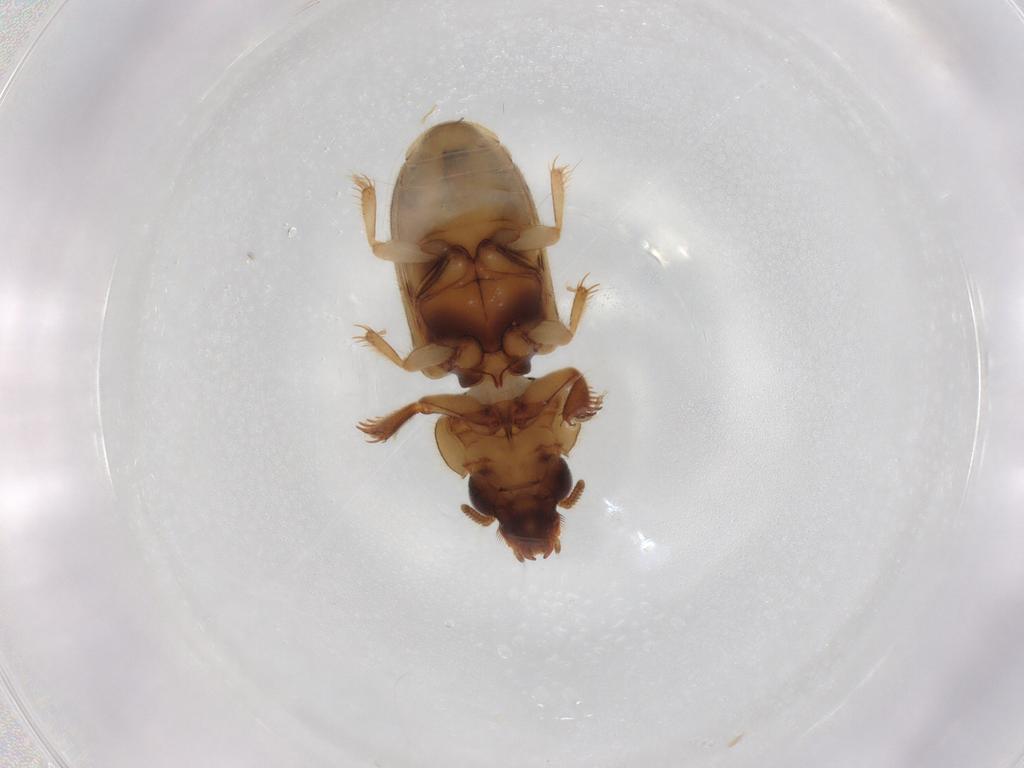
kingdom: Animalia
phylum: Arthropoda
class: Insecta
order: Coleoptera
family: Heteroceridae
